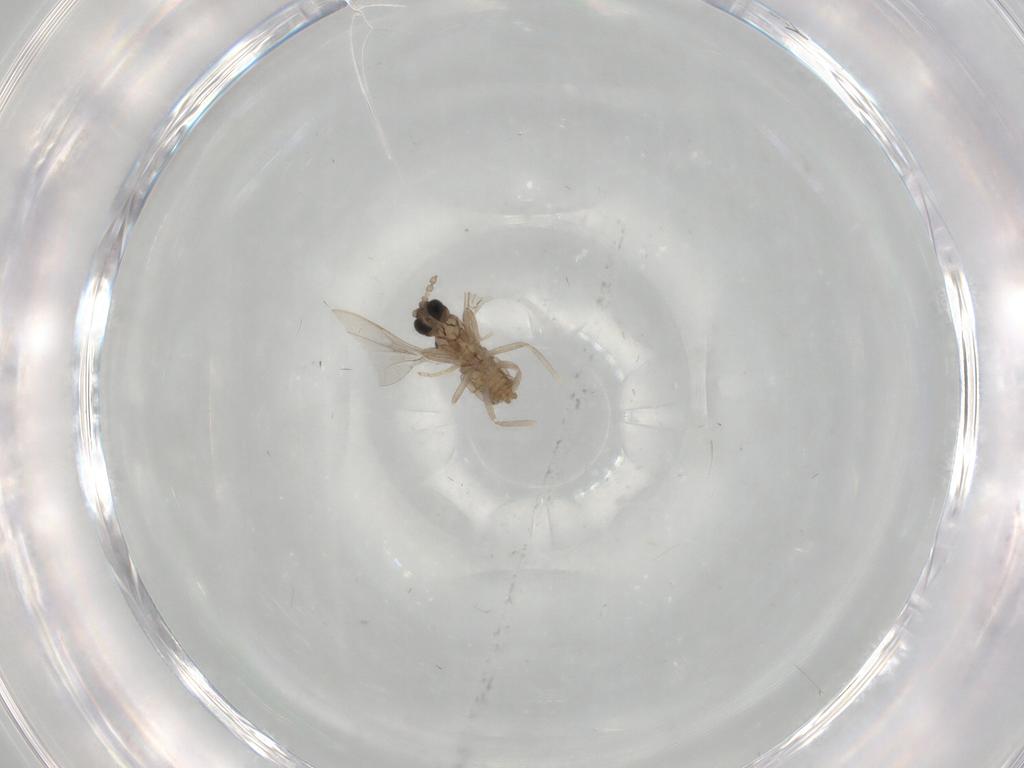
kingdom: Animalia
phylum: Arthropoda
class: Insecta
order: Diptera
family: Cecidomyiidae
